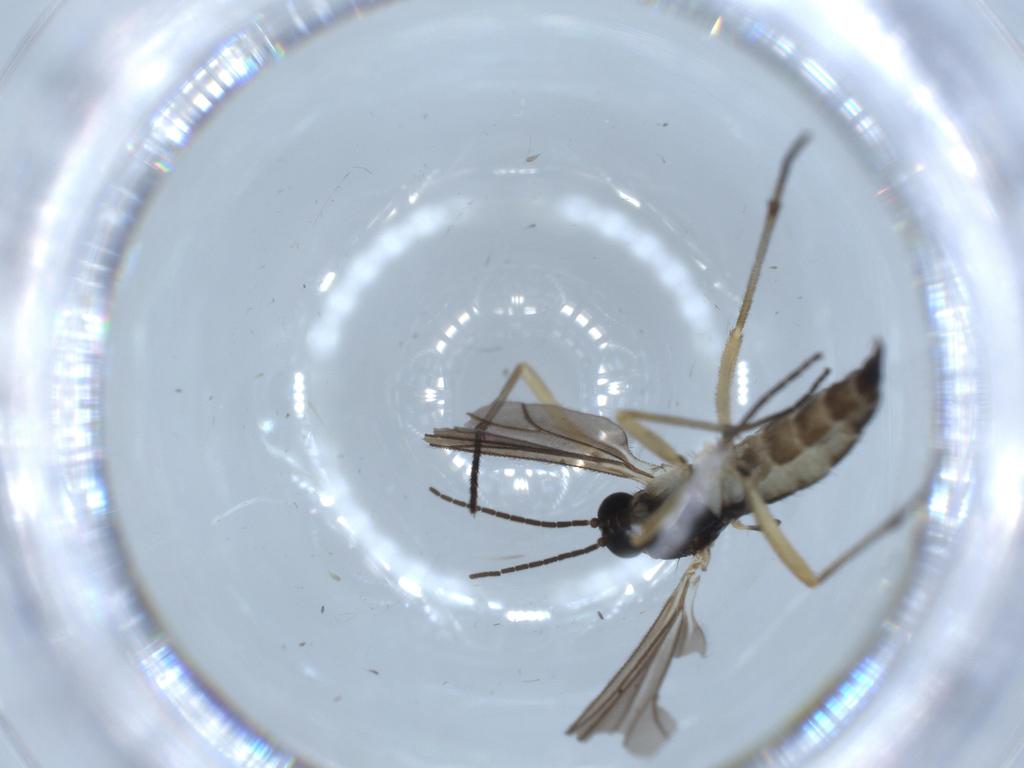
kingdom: Animalia
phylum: Arthropoda
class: Insecta
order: Diptera
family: Sciaridae
